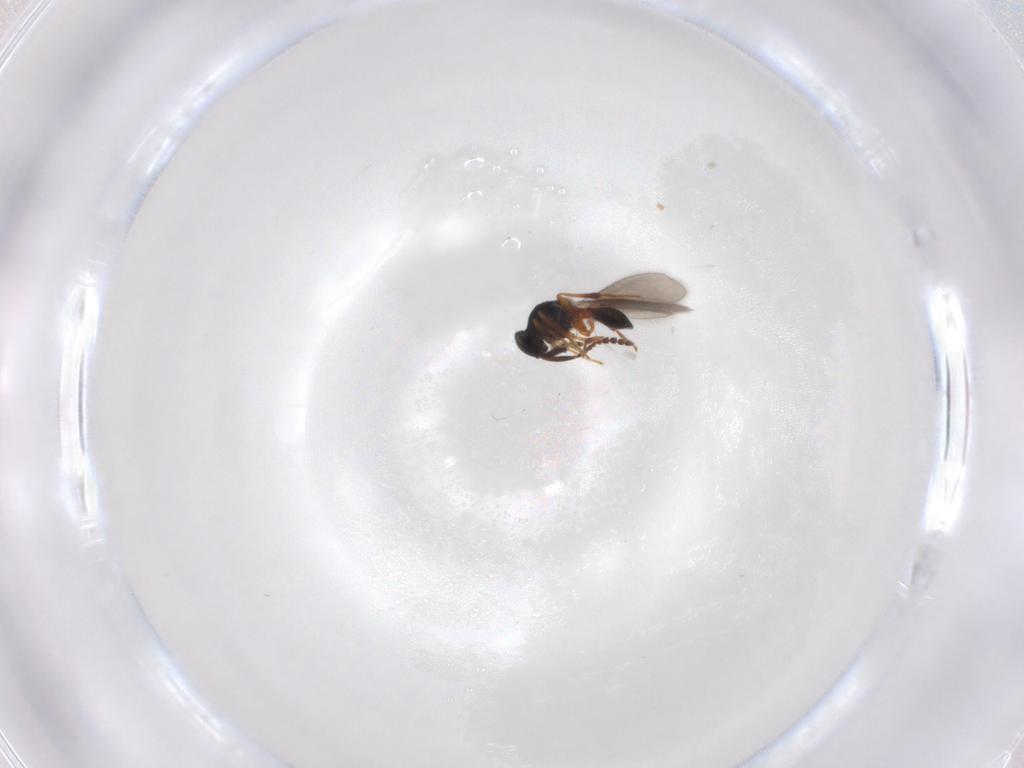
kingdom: Animalia
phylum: Arthropoda
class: Insecta
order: Hymenoptera
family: Platygastridae
